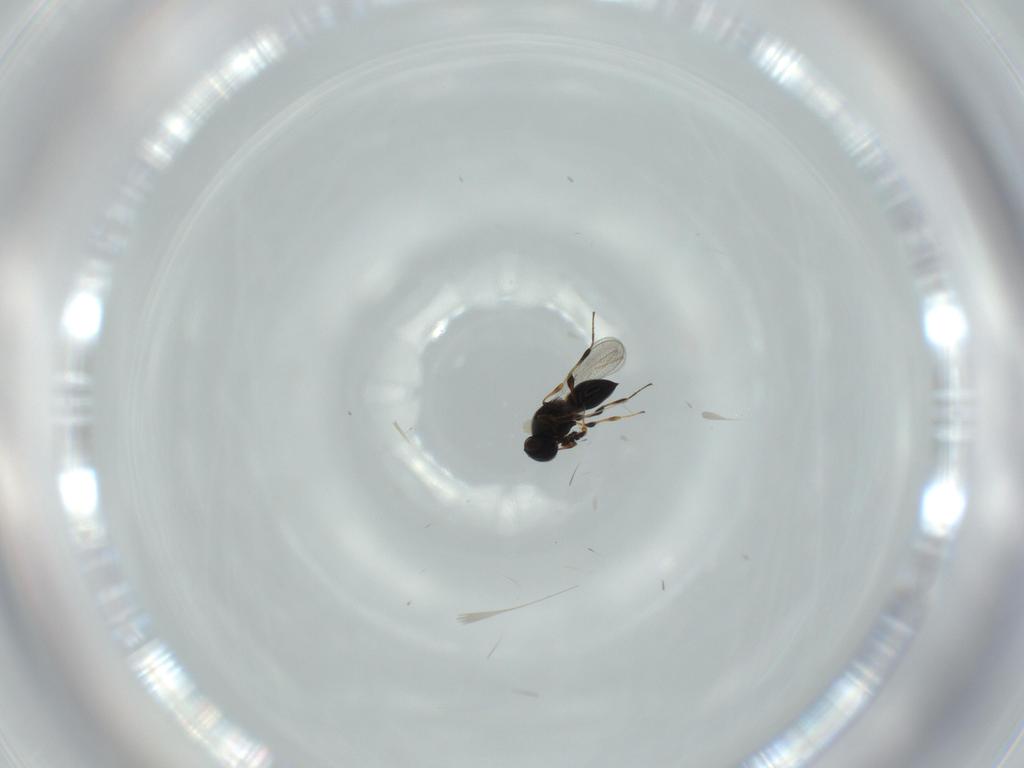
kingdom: Animalia
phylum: Arthropoda
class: Insecta
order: Hymenoptera
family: Platygastridae
